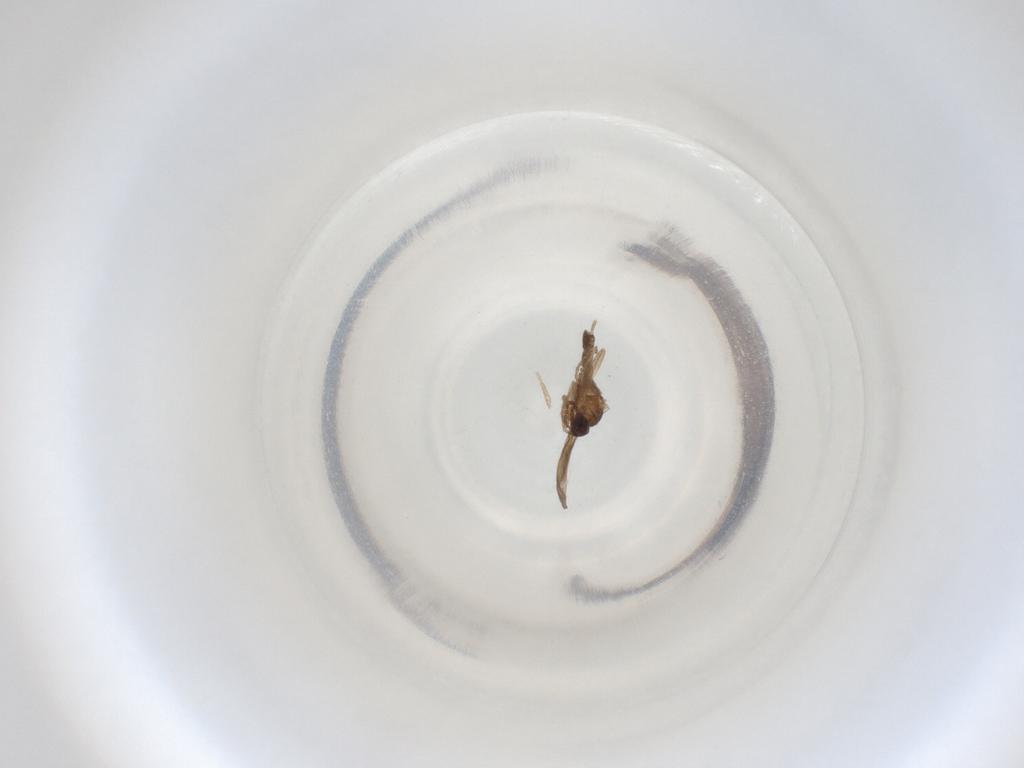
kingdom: Animalia
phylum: Arthropoda
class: Insecta
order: Diptera
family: Cecidomyiidae
